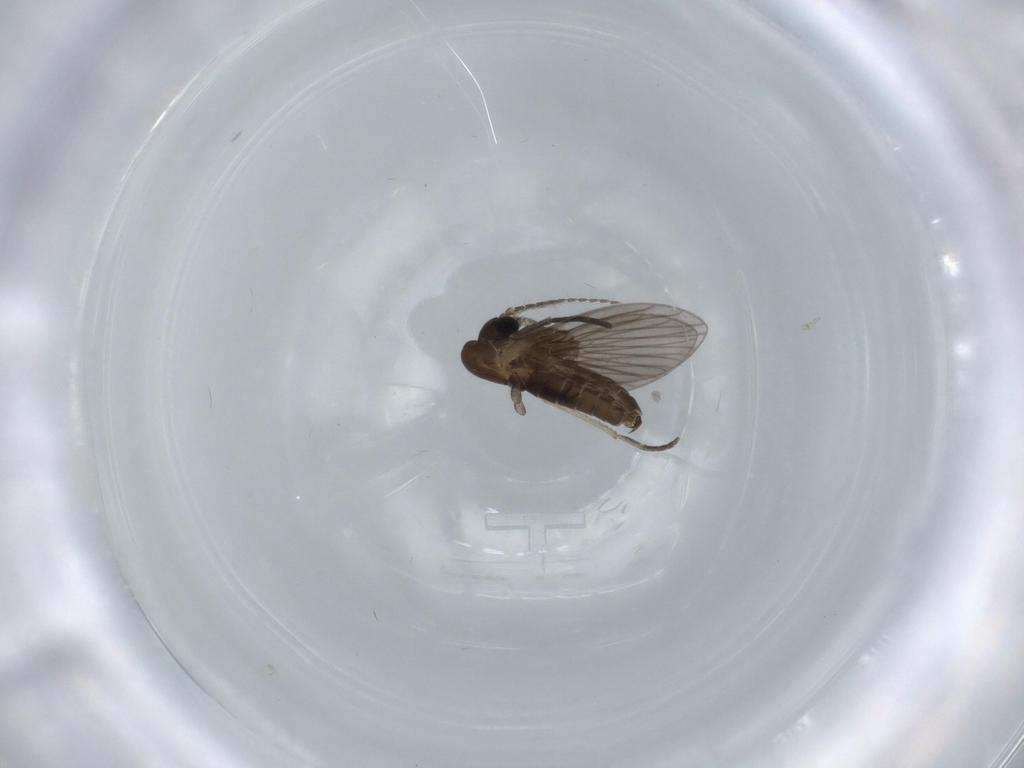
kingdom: Animalia
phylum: Arthropoda
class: Insecta
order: Diptera
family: Psychodidae
